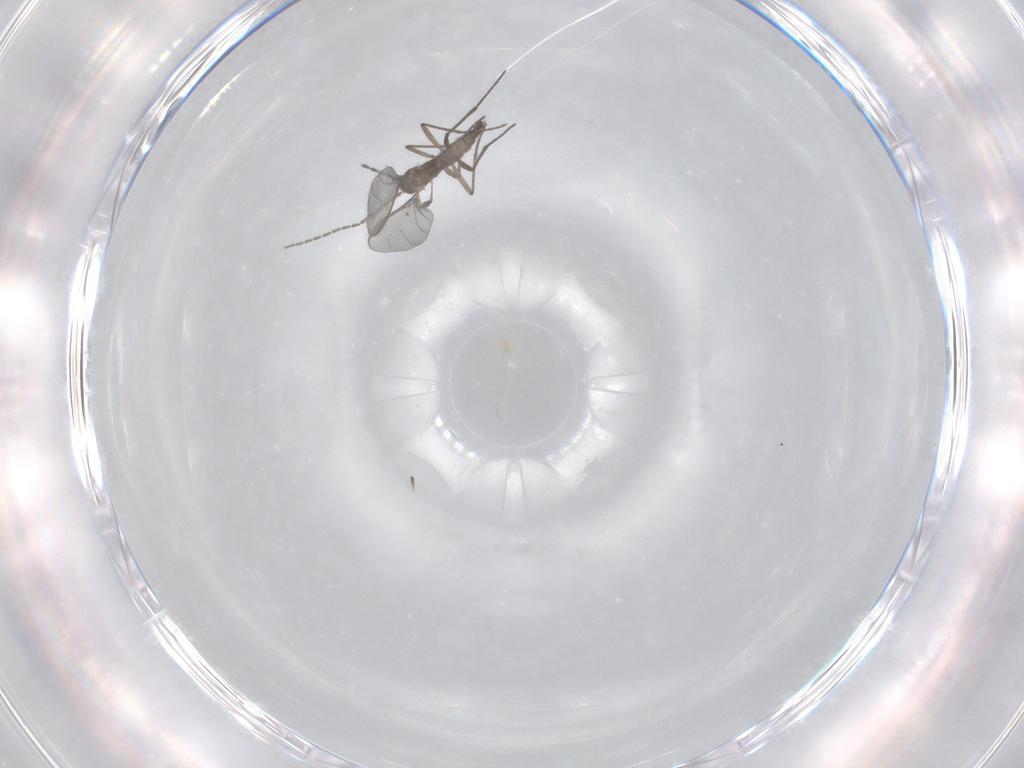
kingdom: Animalia
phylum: Arthropoda
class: Insecta
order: Diptera
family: Sciaridae
